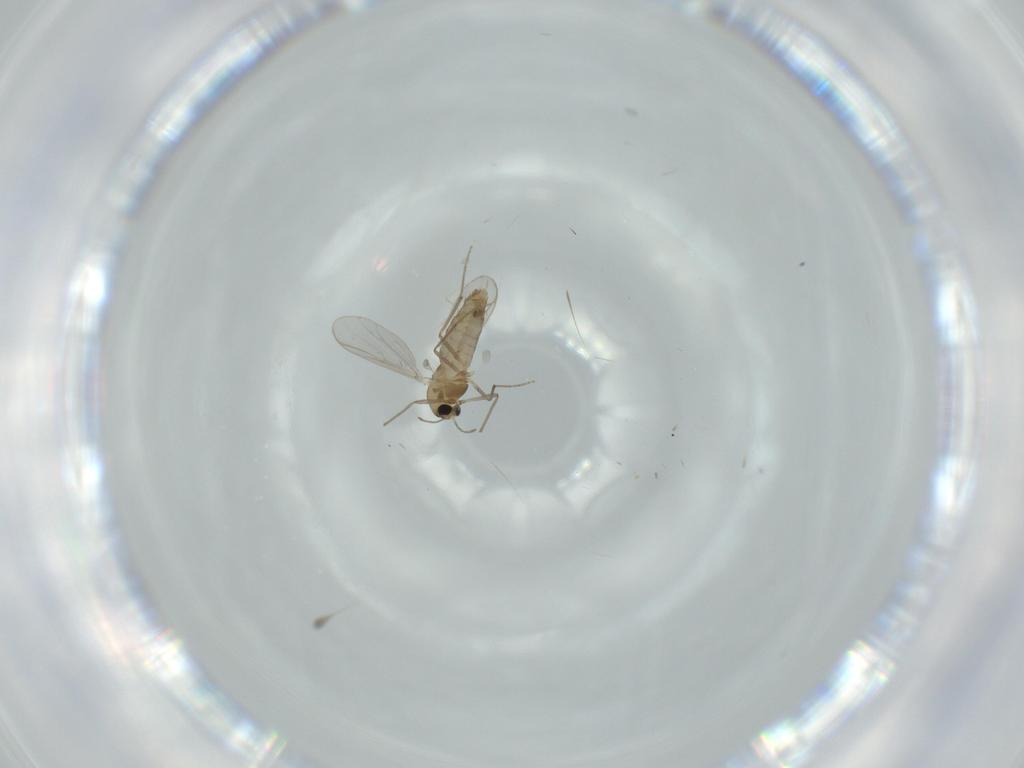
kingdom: Animalia
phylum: Arthropoda
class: Insecta
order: Diptera
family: Chironomidae
